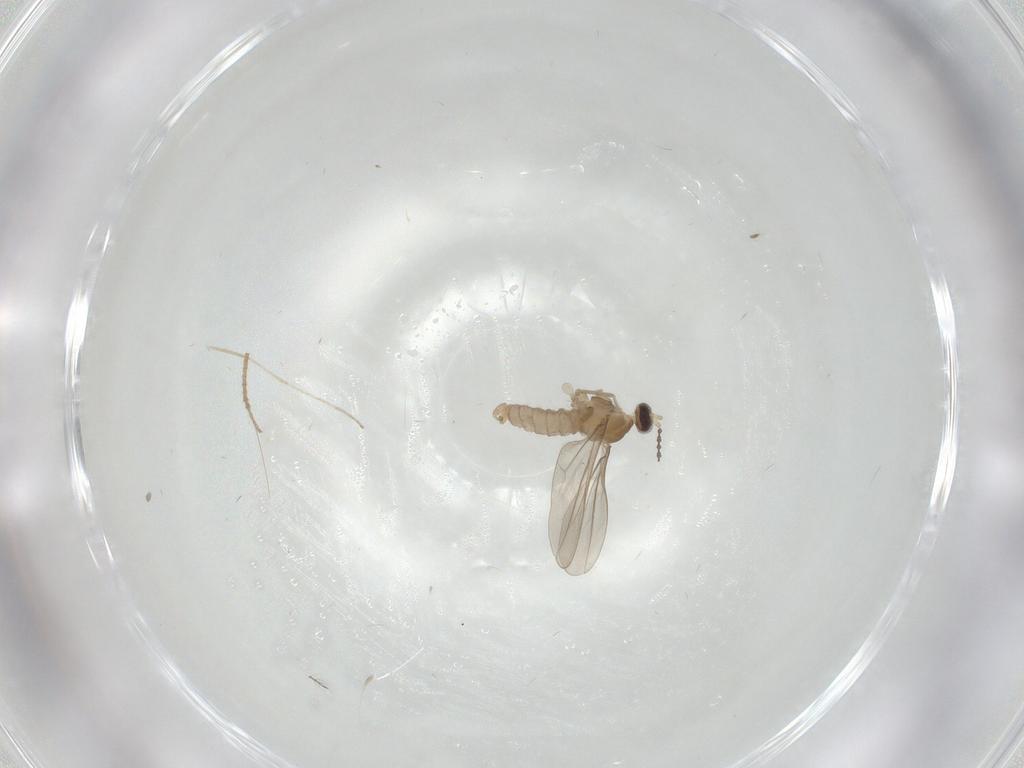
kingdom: Animalia
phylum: Arthropoda
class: Insecta
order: Diptera
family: Cecidomyiidae
